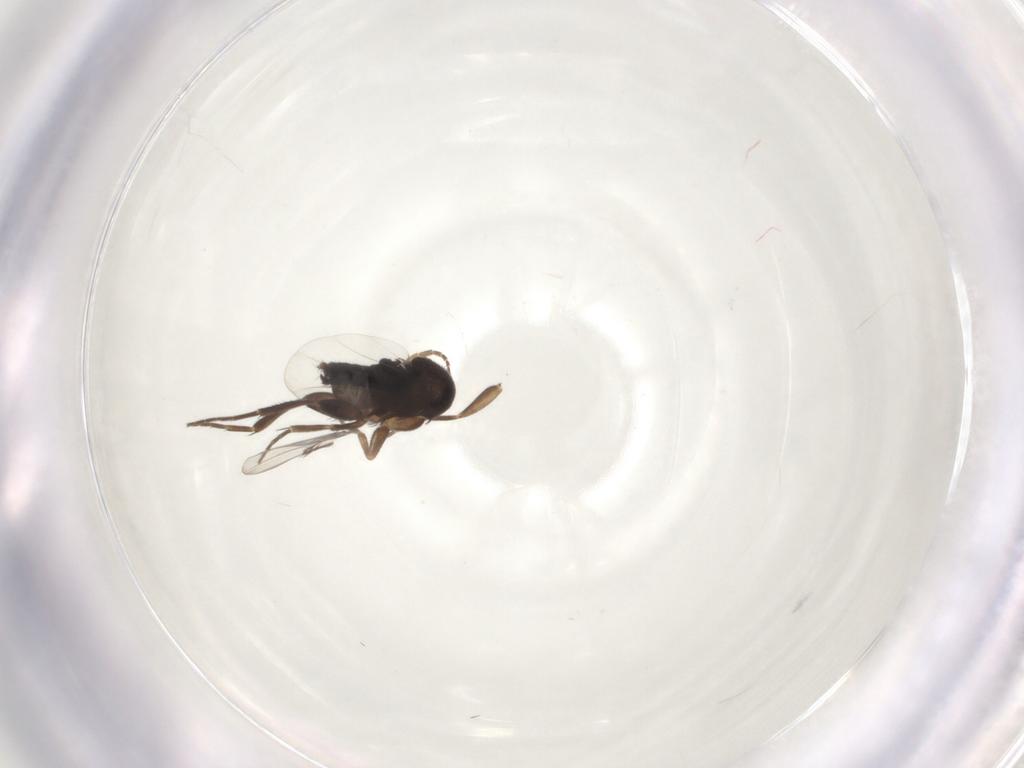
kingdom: Animalia
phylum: Arthropoda
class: Insecta
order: Diptera
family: Phoridae
